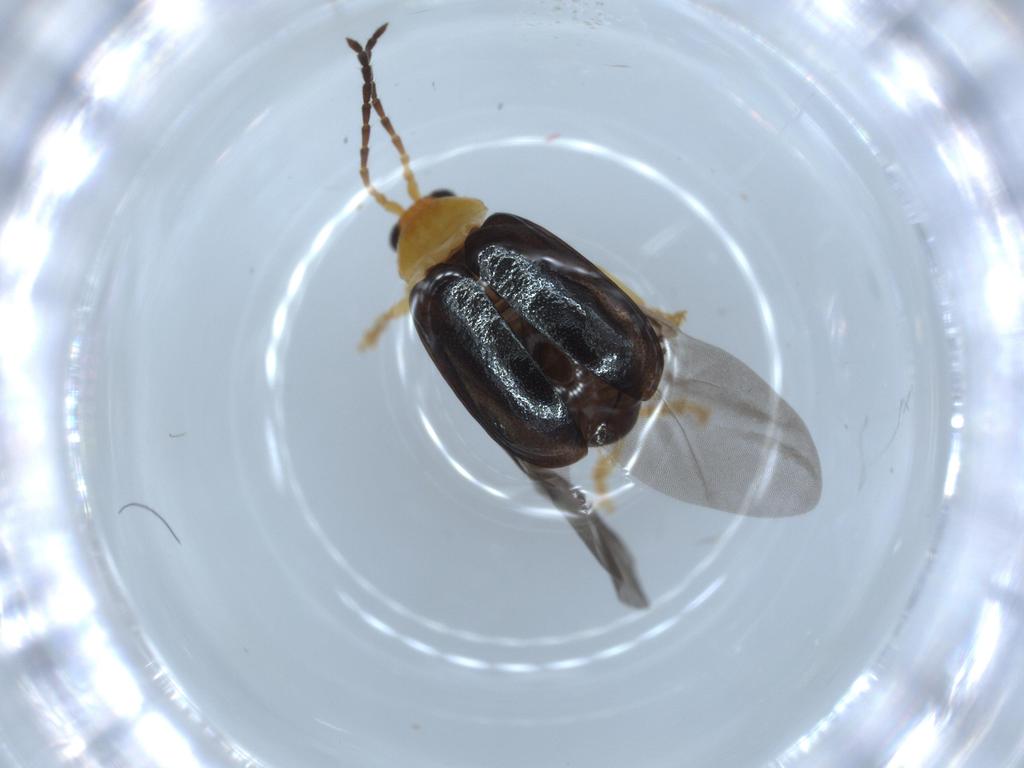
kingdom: Animalia
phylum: Arthropoda
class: Insecta
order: Coleoptera
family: Chrysomelidae
